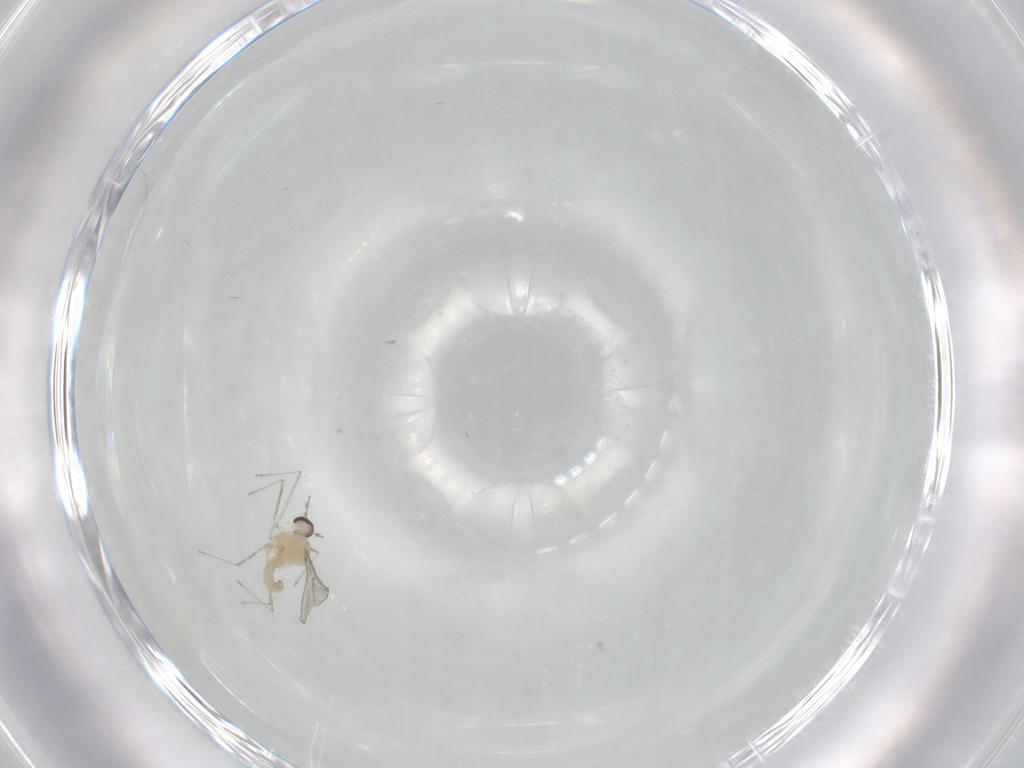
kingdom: Animalia
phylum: Arthropoda
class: Insecta
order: Diptera
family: Cecidomyiidae
